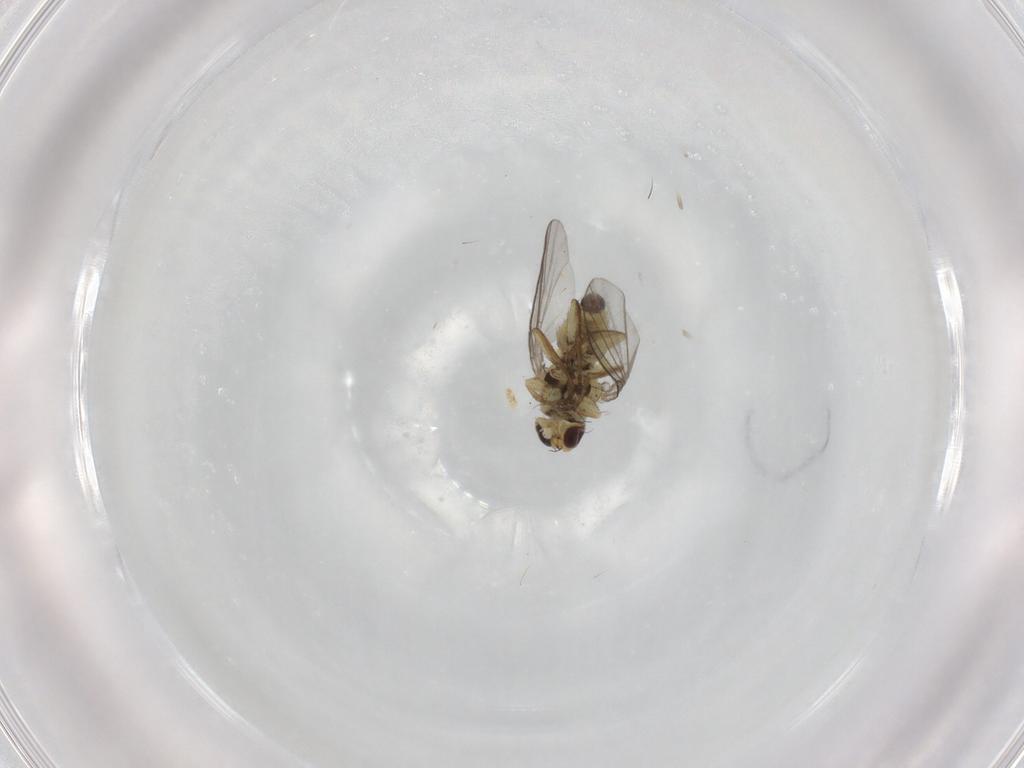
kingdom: Animalia
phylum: Arthropoda
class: Insecta
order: Diptera
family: Agromyzidae
